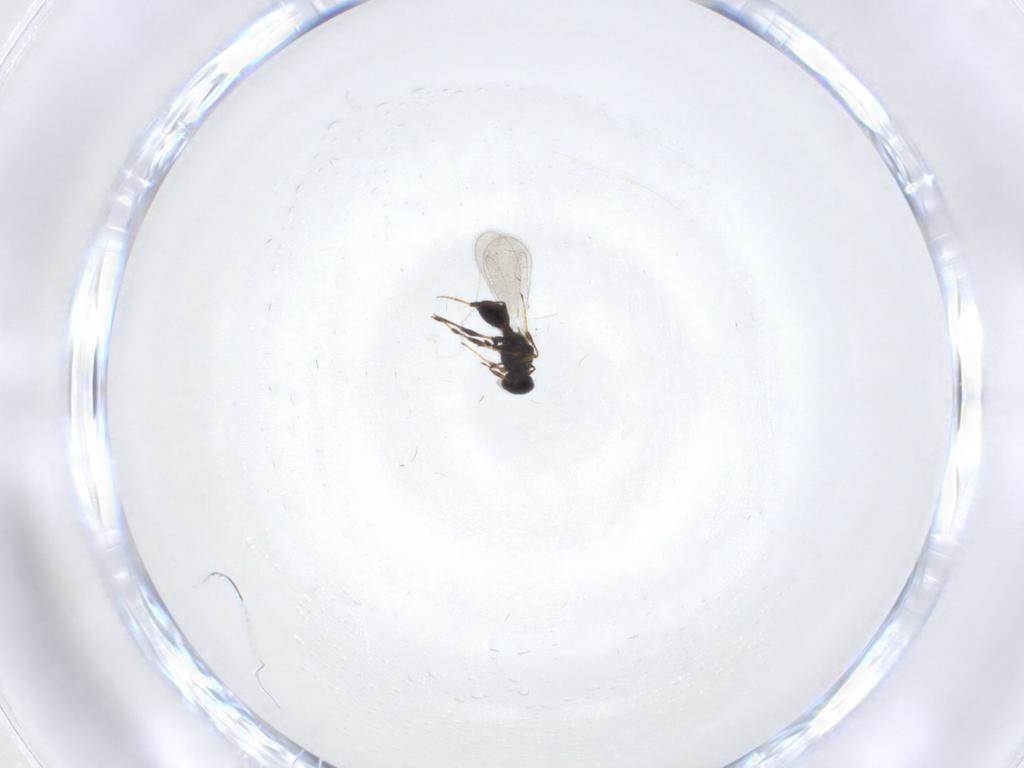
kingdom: Animalia
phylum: Arthropoda
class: Insecta
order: Hymenoptera
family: Platygastridae
